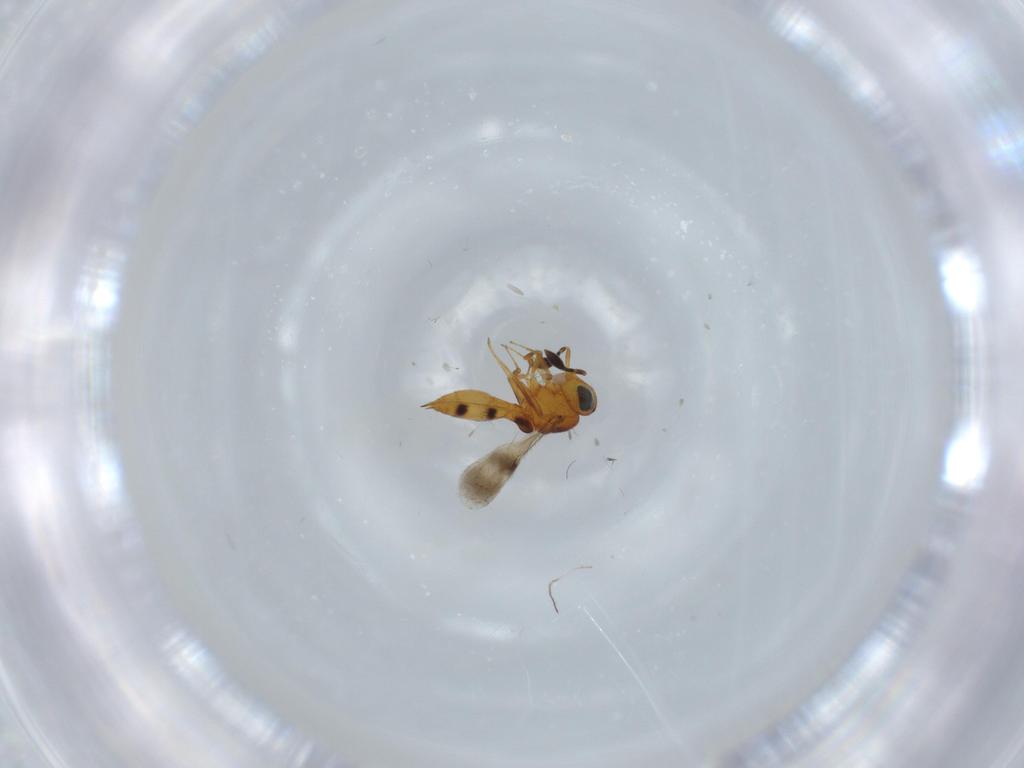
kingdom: Animalia
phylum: Arthropoda
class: Insecta
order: Hymenoptera
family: Scelionidae
